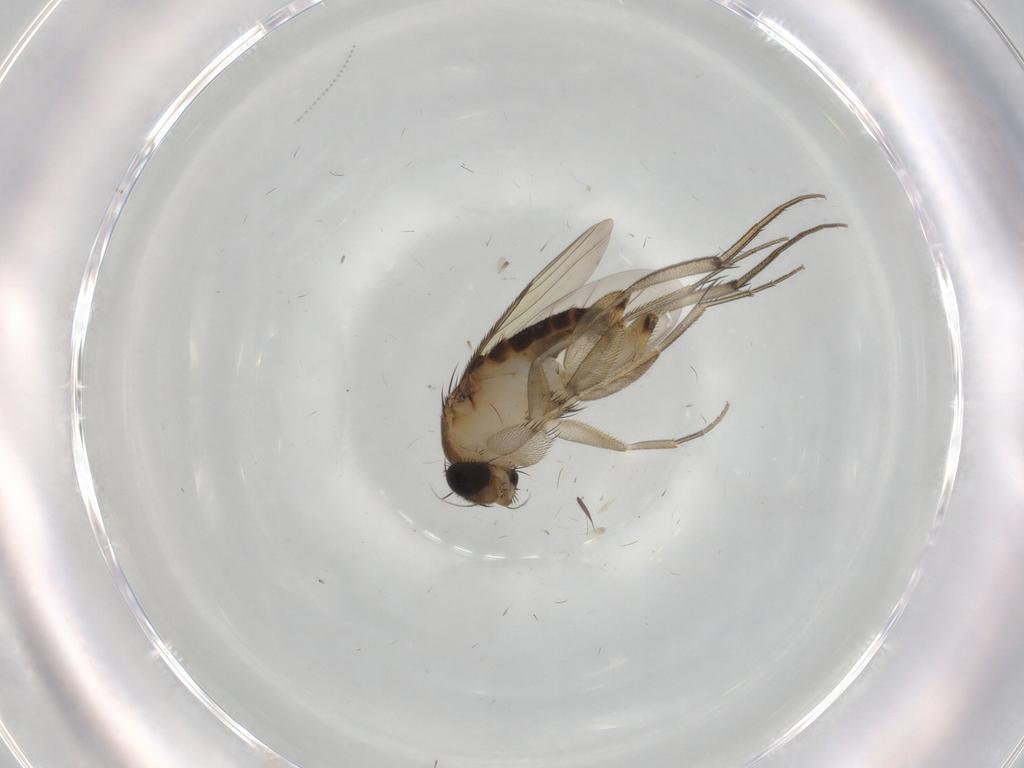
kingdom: Animalia
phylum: Arthropoda
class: Insecta
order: Diptera
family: Phoridae
